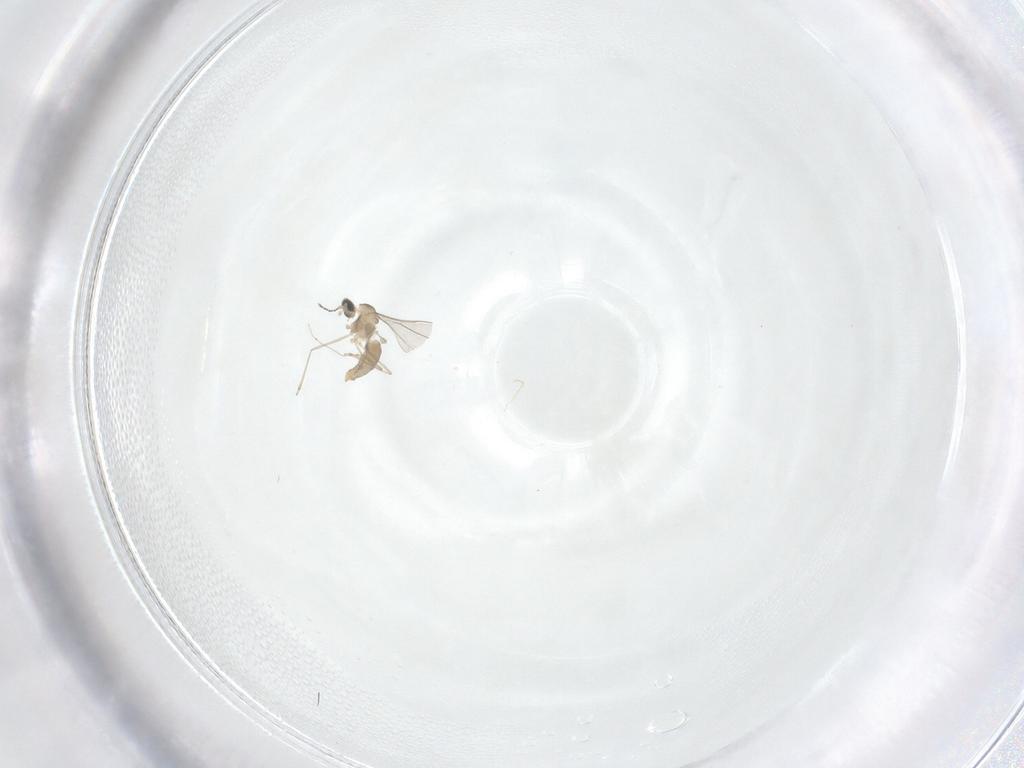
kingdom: Animalia
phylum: Arthropoda
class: Insecta
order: Diptera
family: Cecidomyiidae
